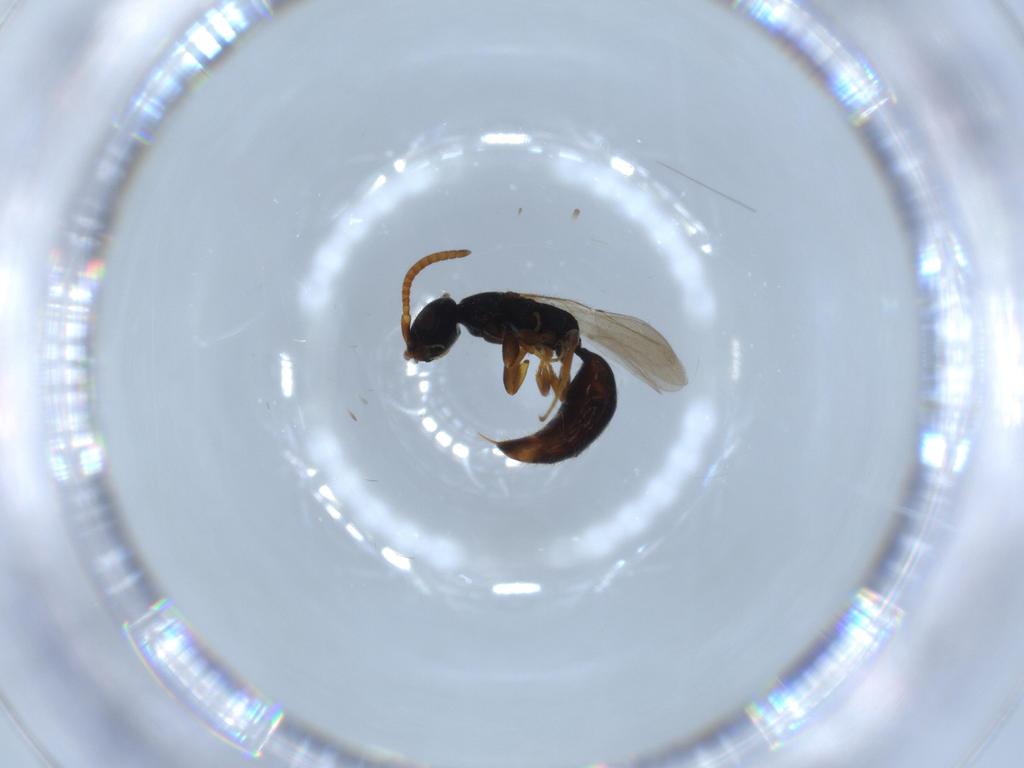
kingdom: Animalia
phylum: Arthropoda
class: Insecta
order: Hymenoptera
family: Bethylidae
